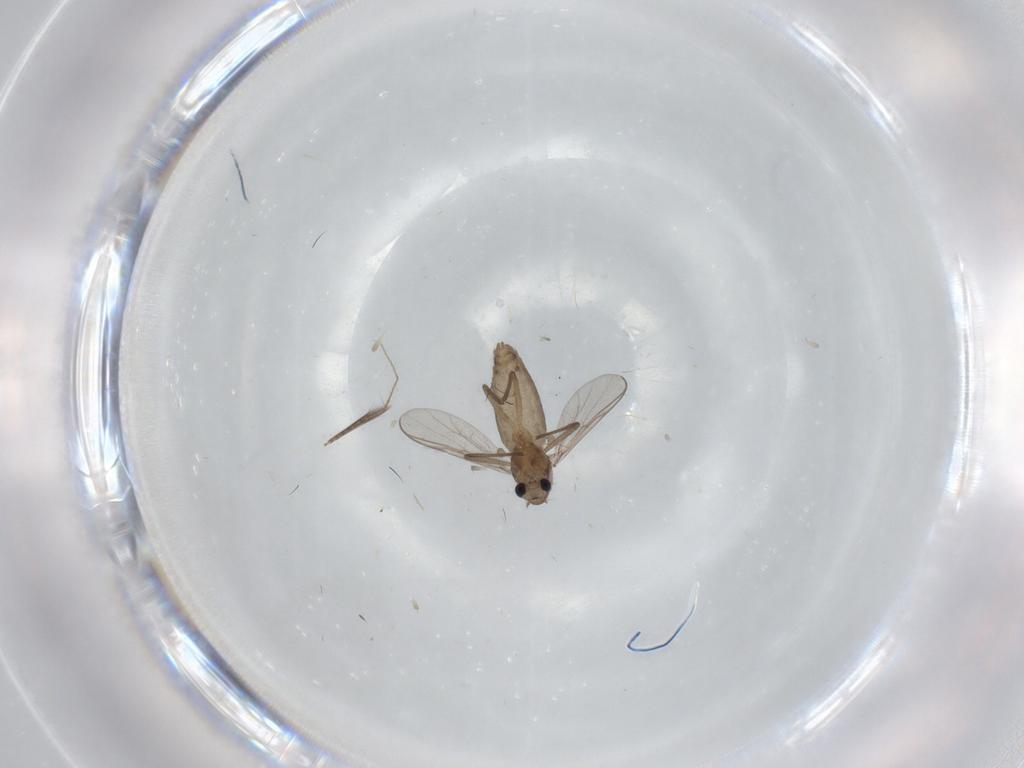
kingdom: Animalia
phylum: Arthropoda
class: Insecta
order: Diptera
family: Chironomidae
